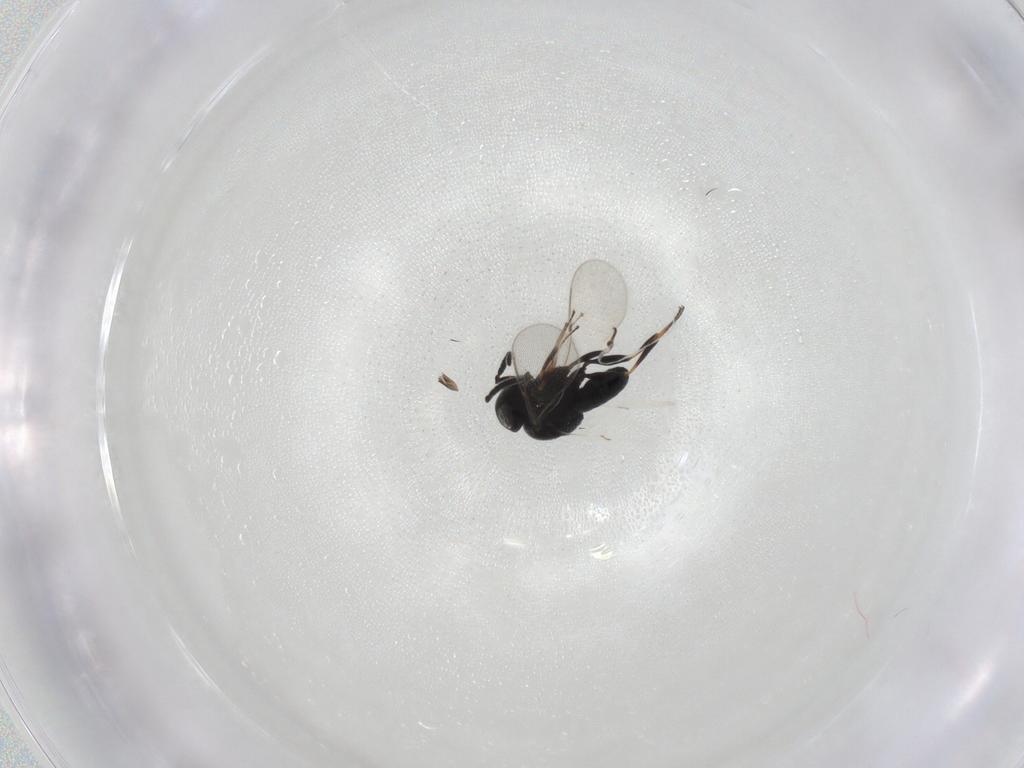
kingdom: Animalia
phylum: Arthropoda
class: Insecta
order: Hymenoptera
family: Mymaridae
